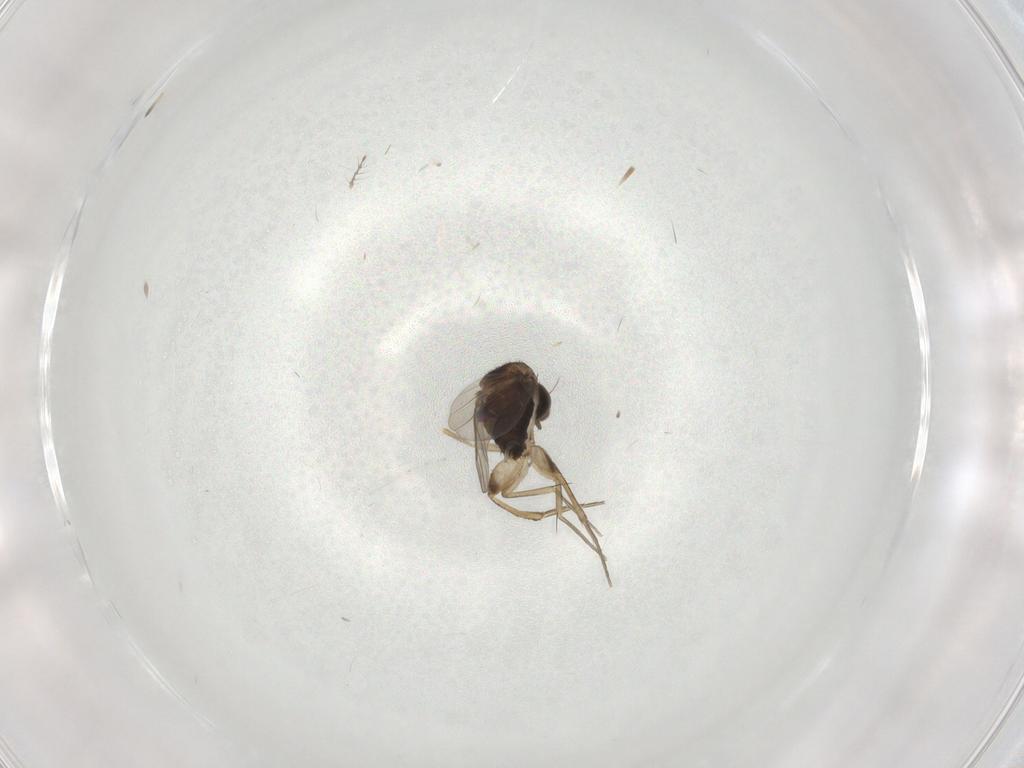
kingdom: Animalia
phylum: Arthropoda
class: Insecta
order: Diptera
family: Phoridae
